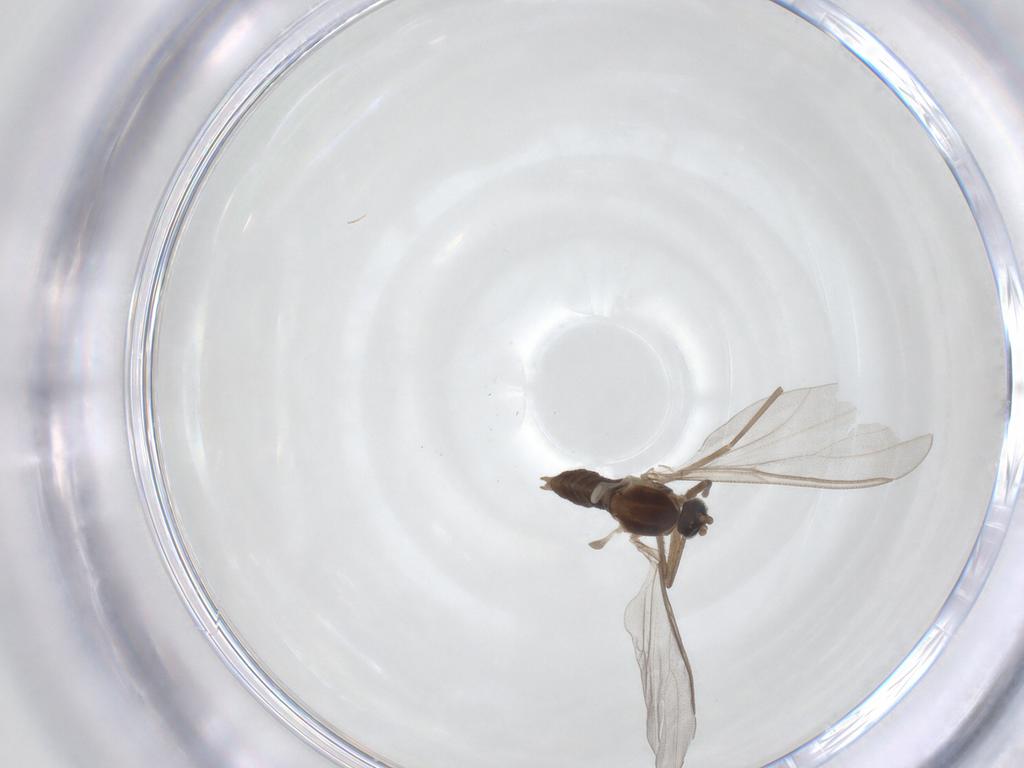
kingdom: Animalia
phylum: Arthropoda
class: Insecta
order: Diptera
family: Cecidomyiidae
